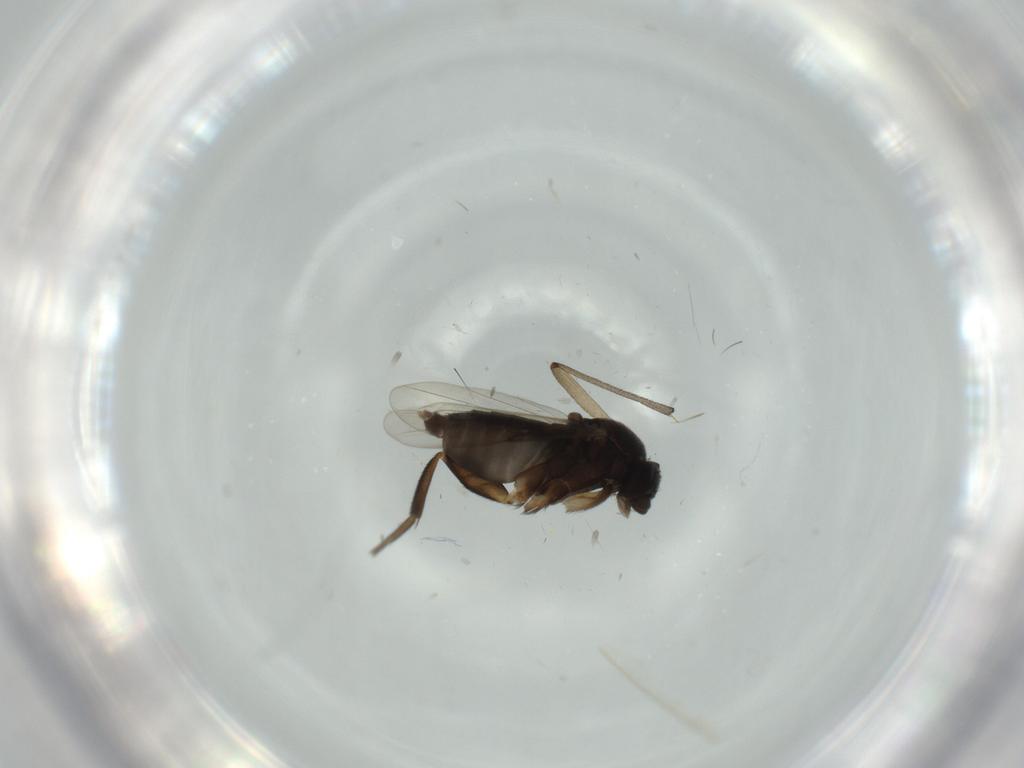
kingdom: Animalia
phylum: Arthropoda
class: Insecta
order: Diptera
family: Phoridae
